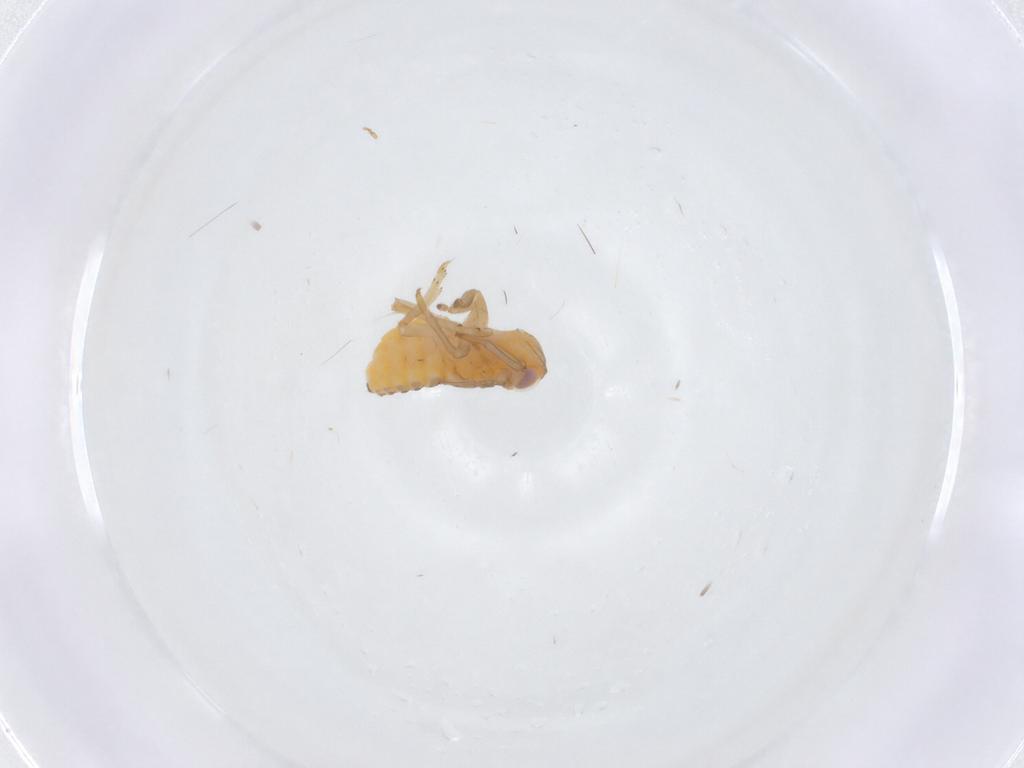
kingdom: Animalia
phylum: Arthropoda
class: Insecta
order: Hemiptera
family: Fulgoroidea_incertae_sedis
